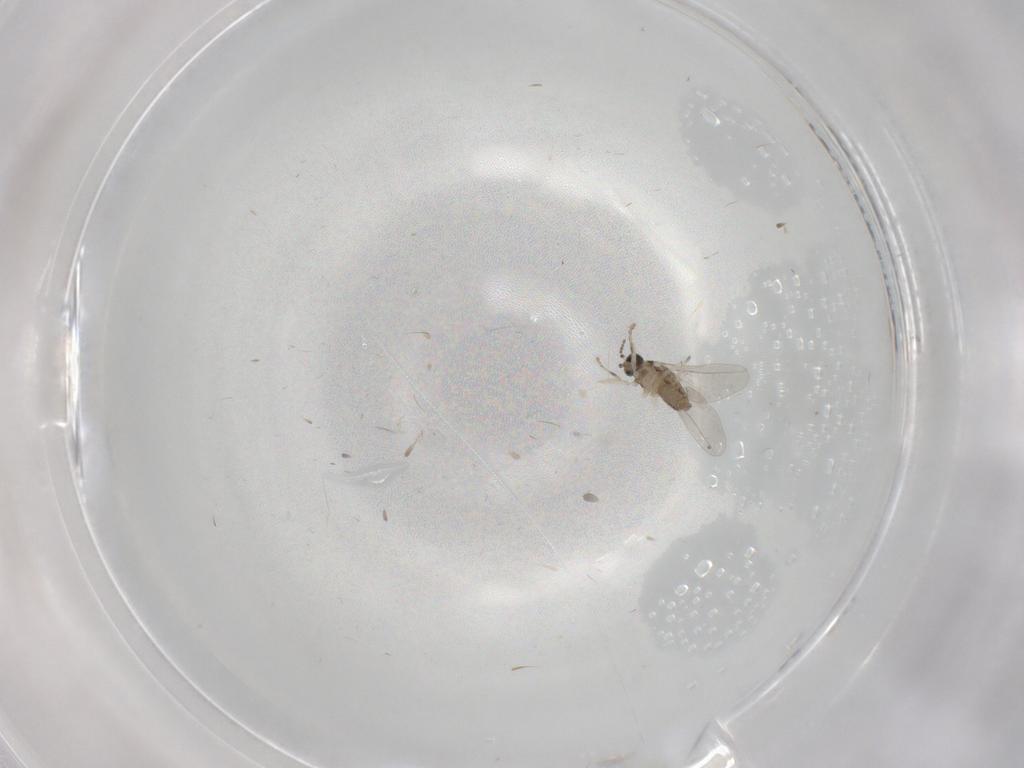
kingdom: Animalia
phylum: Arthropoda
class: Insecta
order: Diptera
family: Cecidomyiidae
